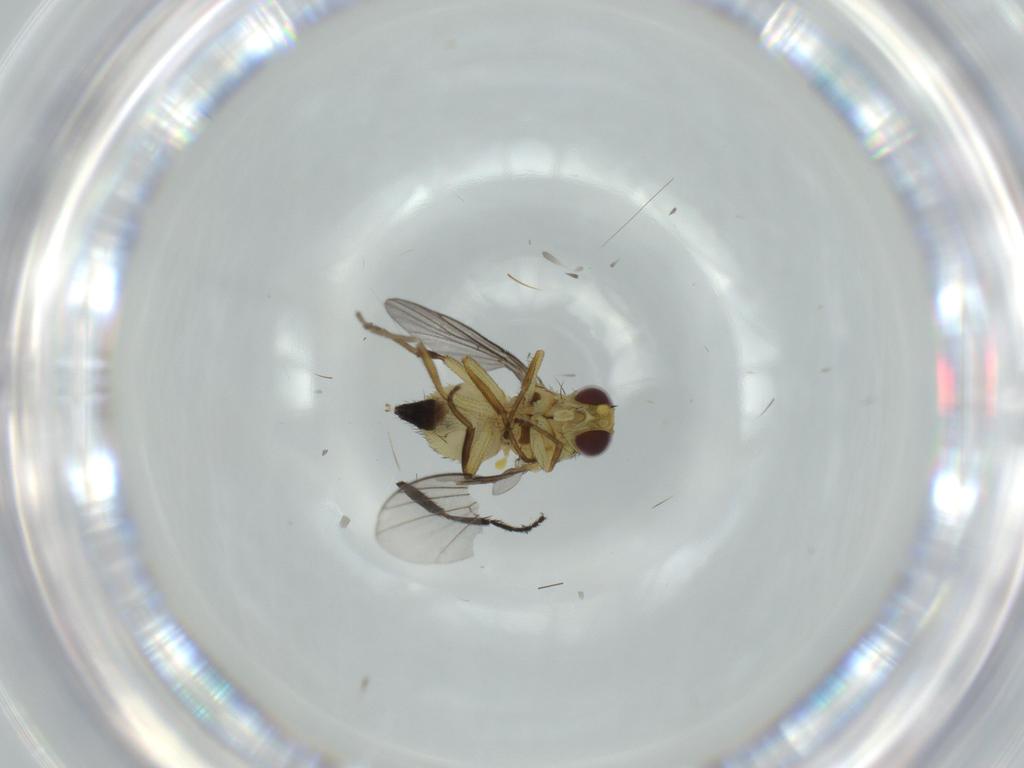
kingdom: Animalia
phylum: Arthropoda
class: Insecta
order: Diptera
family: Agromyzidae
